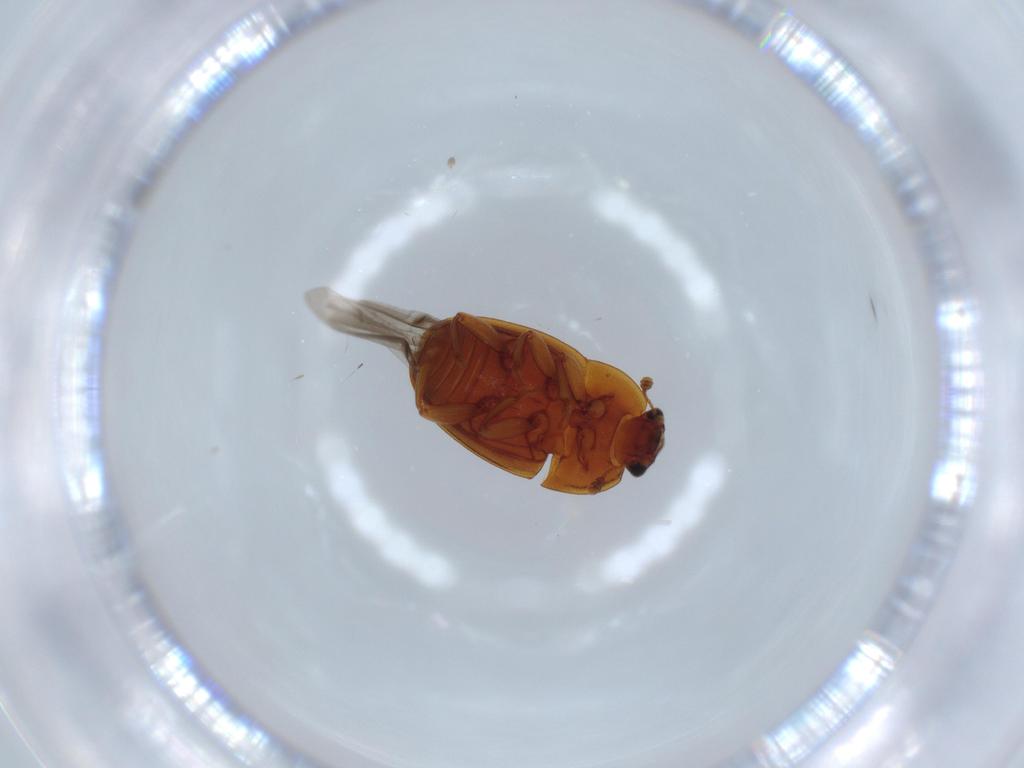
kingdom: Animalia
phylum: Arthropoda
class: Insecta
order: Coleoptera
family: Curculionidae
